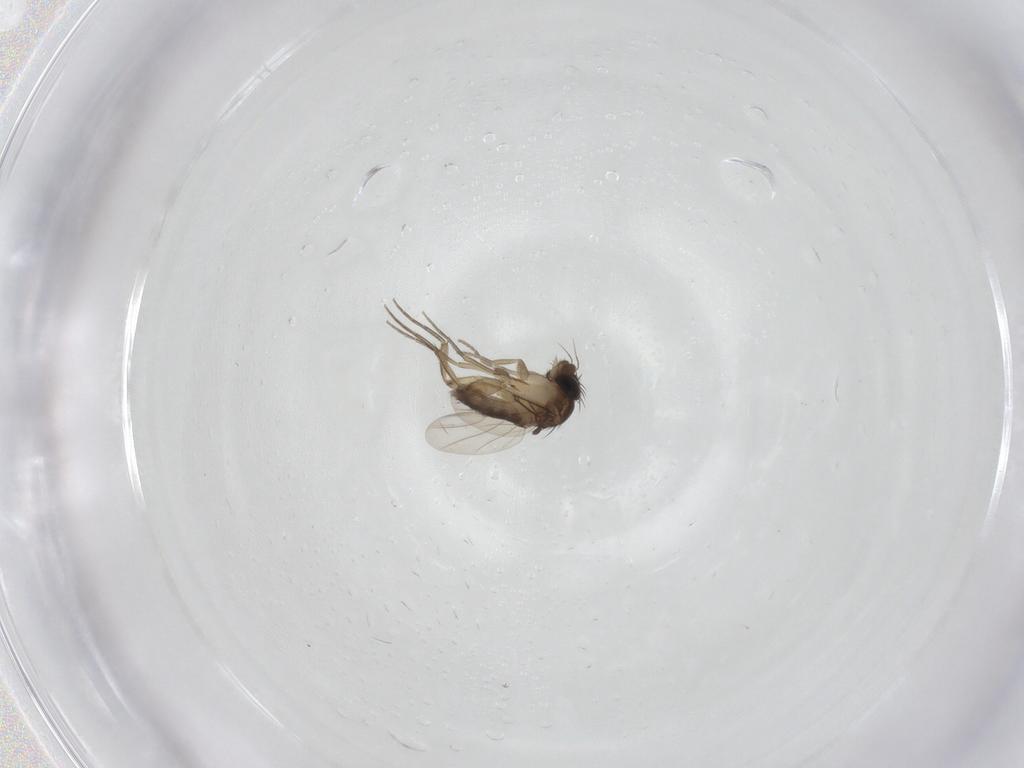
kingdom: Animalia
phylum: Arthropoda
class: Insecta
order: Diptera
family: Phoridae
